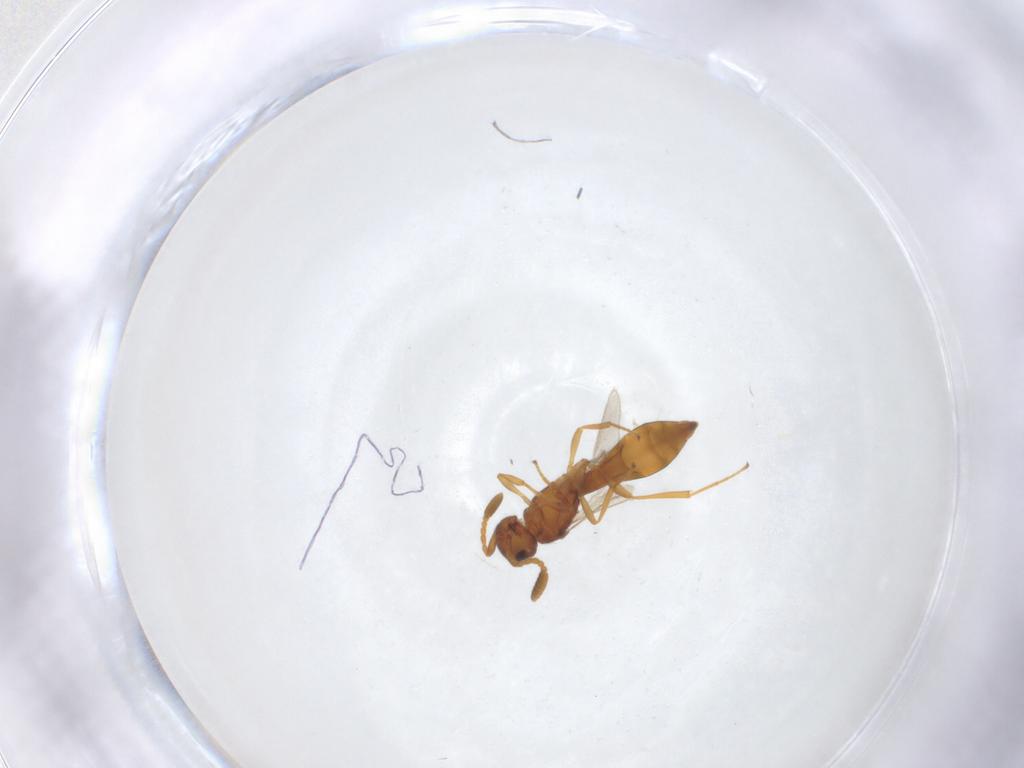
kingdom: Animalia
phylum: Arthropoda
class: Insecta
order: Hymenoptera
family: Scelionidae
